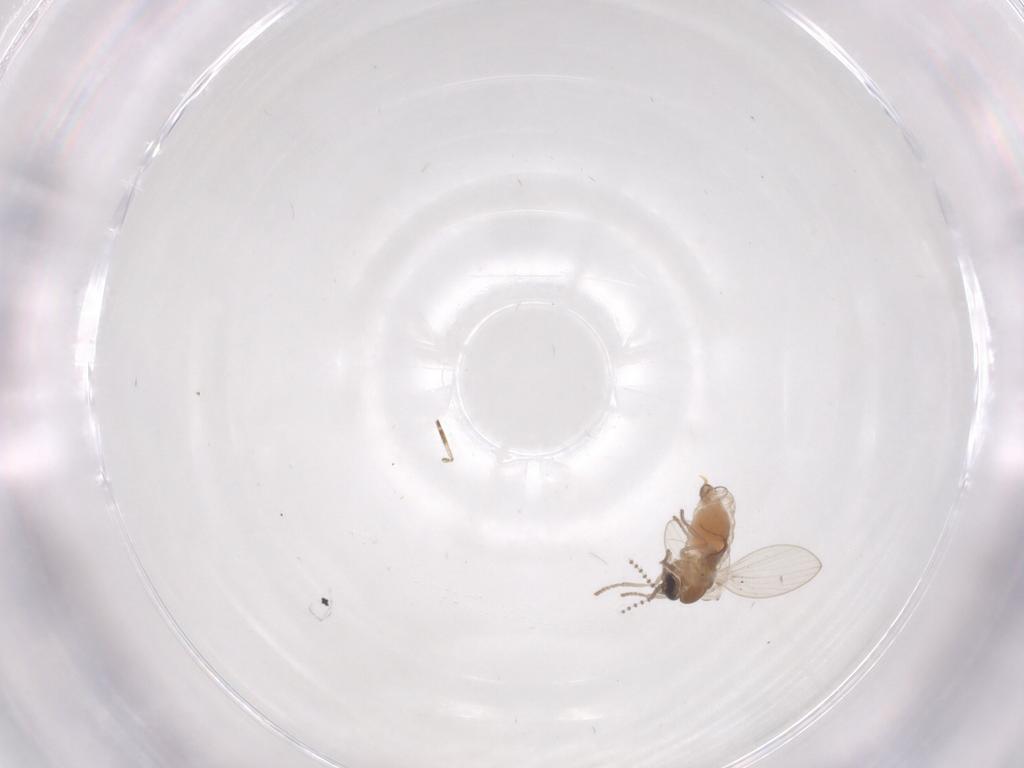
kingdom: Animalia
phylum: Arthropoda
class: Insecta
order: Diptera
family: Psychodidae
